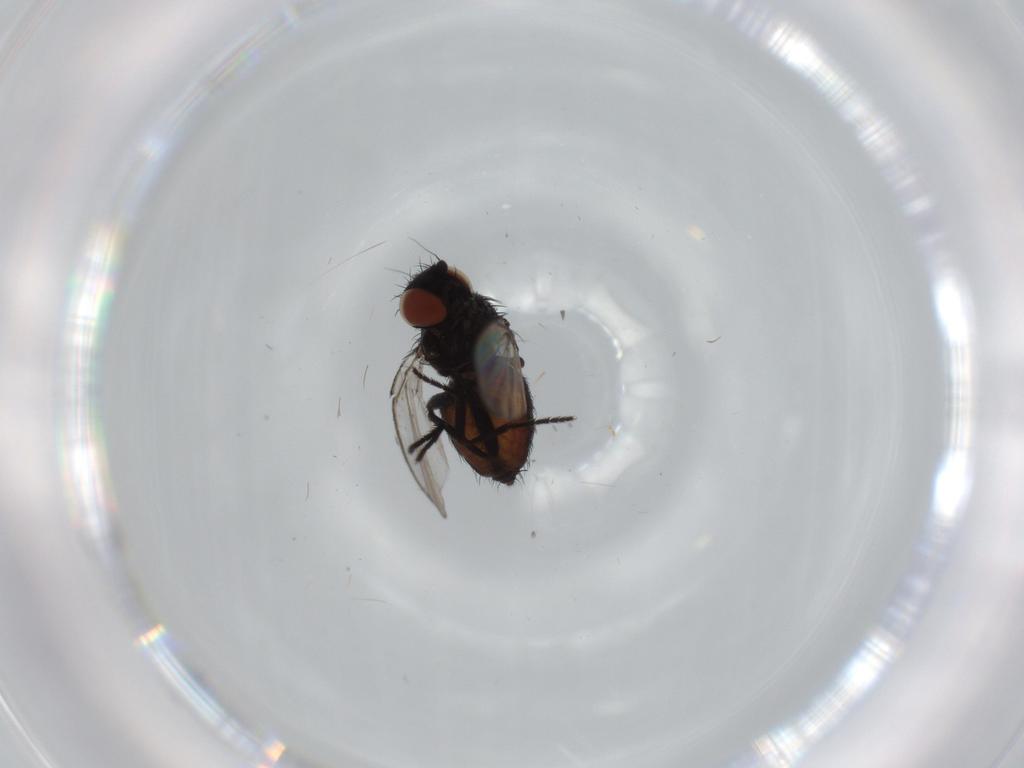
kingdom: Animalia
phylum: Arthropoda
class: Insecta
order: Diptera
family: Milichiidae
